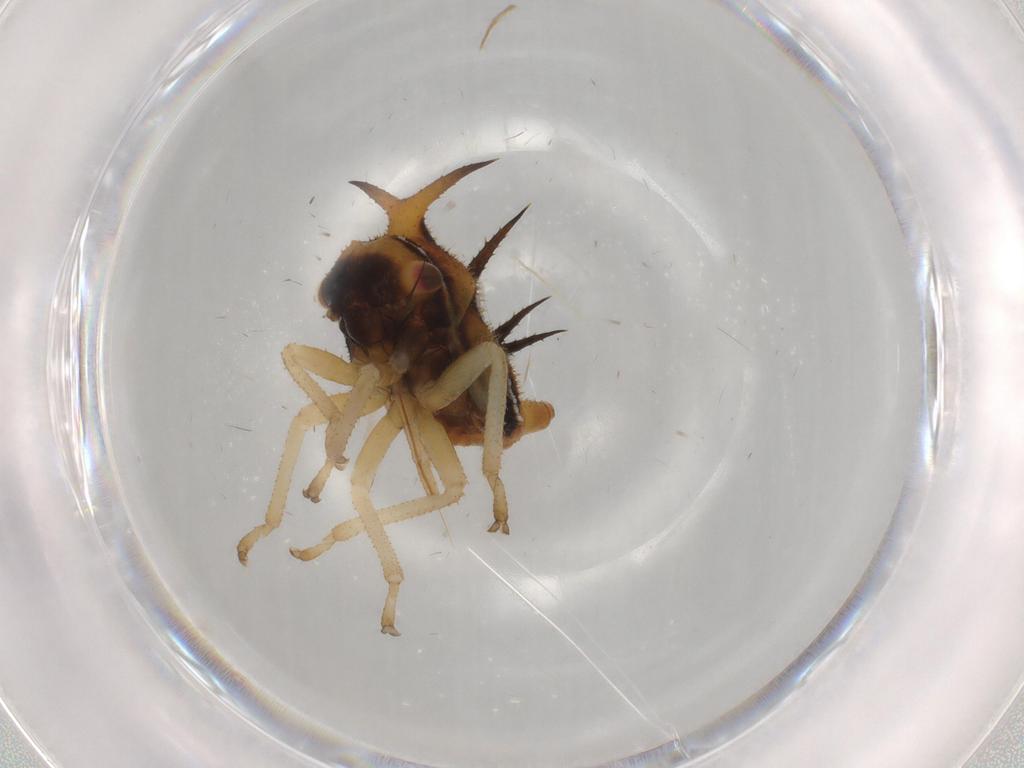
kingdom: Animalia
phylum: Arthropoda
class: Insecta
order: Hemiptera
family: Membracidae
